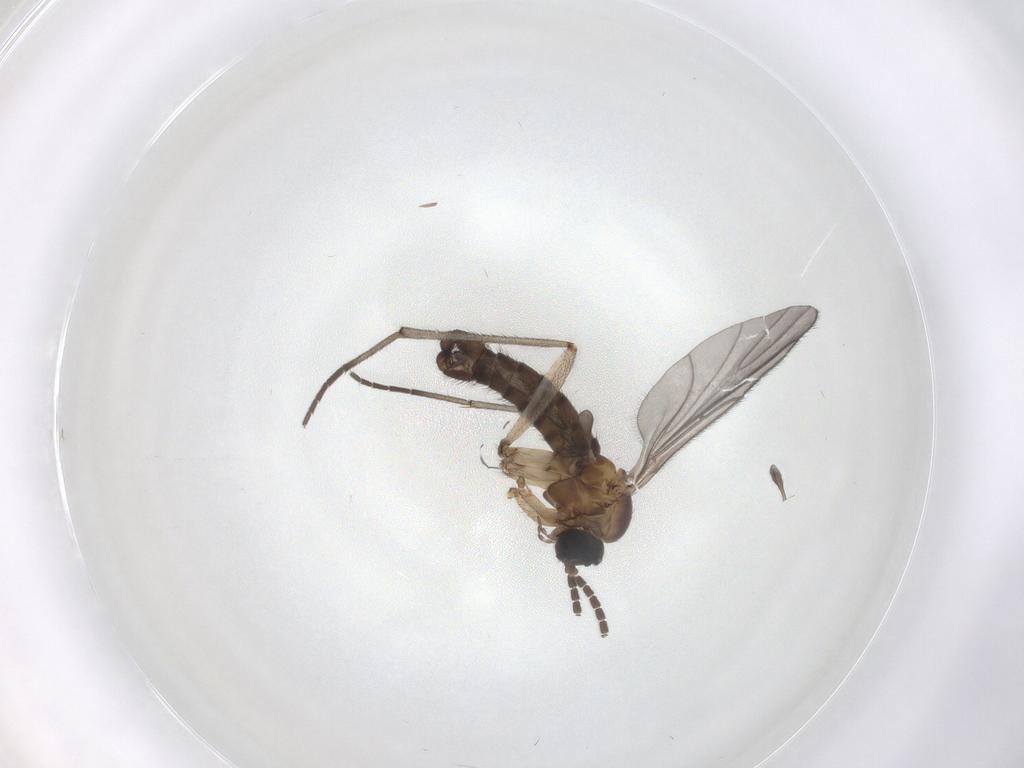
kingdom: Animalia
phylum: Arthropoda
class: Insecta
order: Diptera
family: Sciaridae
